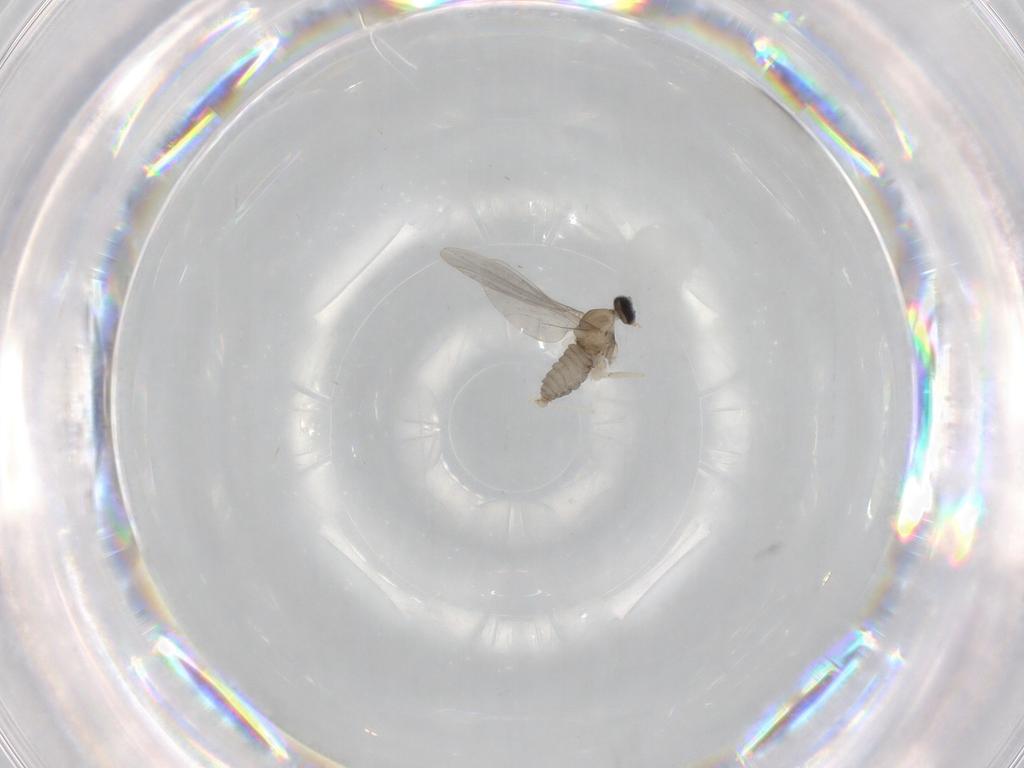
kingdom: Animalia
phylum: Arthropoda
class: Insecta
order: Diptera
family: Cecidomyiidae
